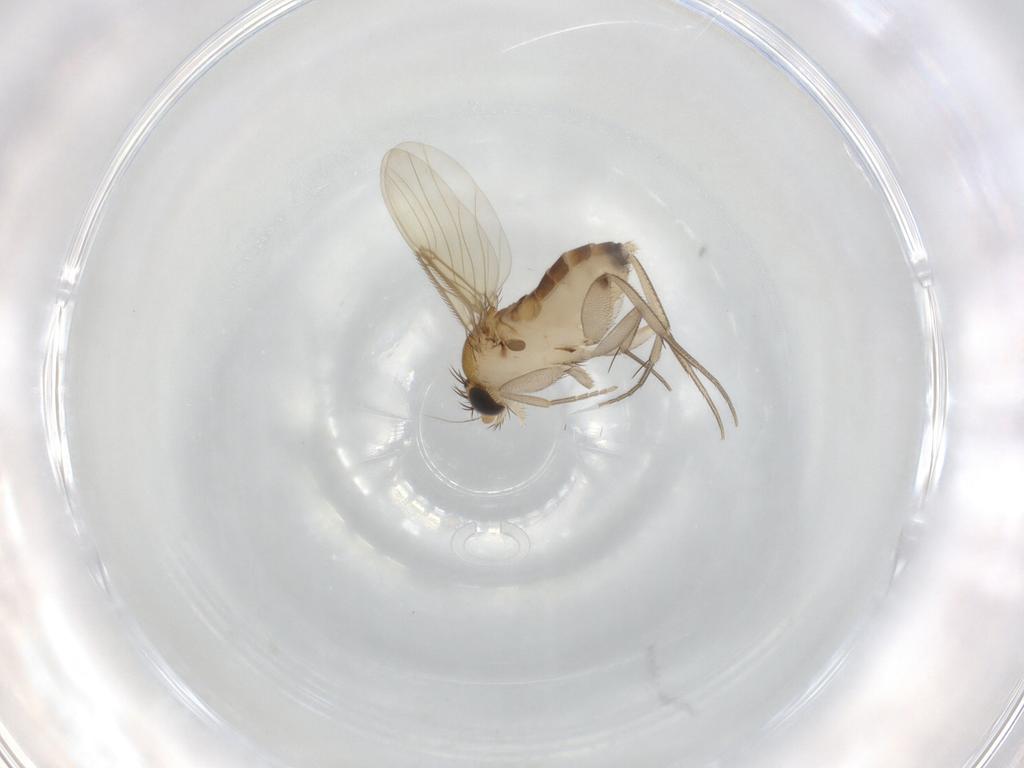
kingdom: Animalia
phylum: Arthropoda
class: Insecta
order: Diptera
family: Phoridae
